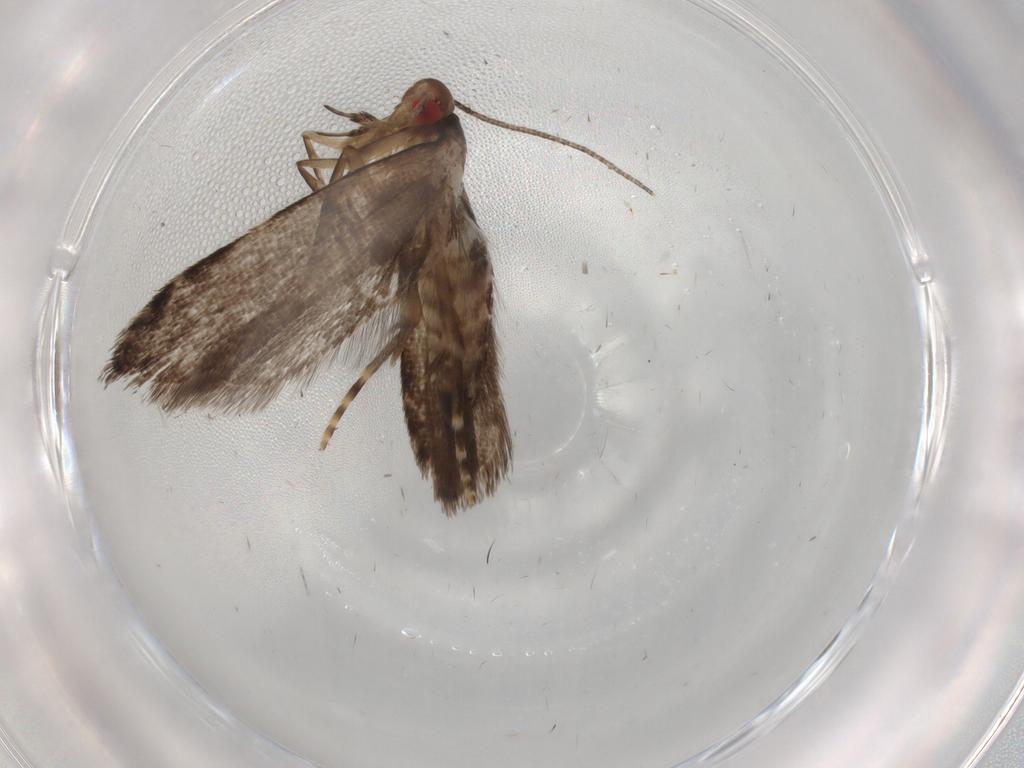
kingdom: Animalia
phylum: Arthropoda
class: Insecta
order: Lepidoptera
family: Gelechiidae
